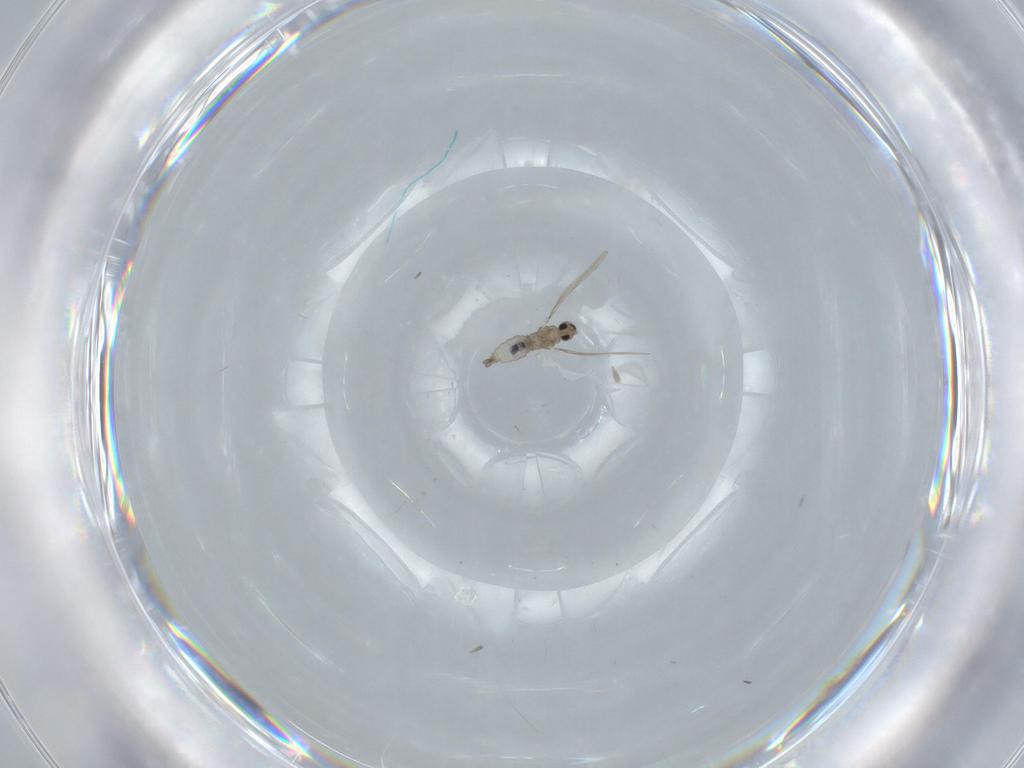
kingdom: Animalia
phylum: Arthropoda
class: Insecta
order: Diptera
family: Cecidomyiidae
